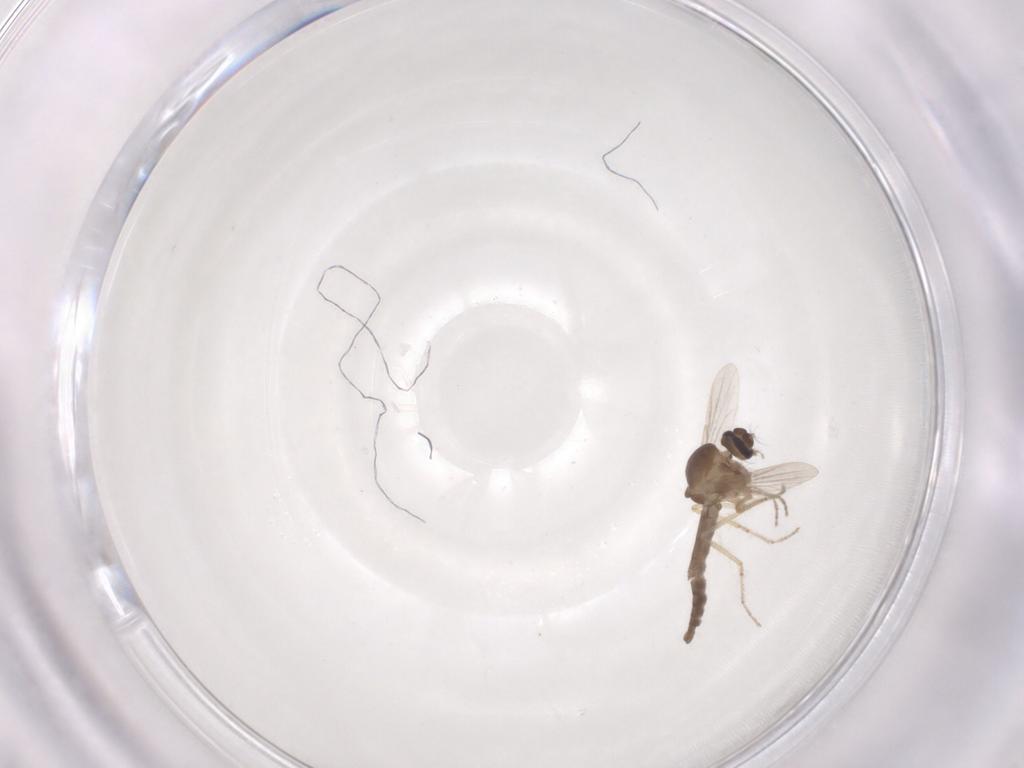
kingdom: Animalia
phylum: Arthropoda
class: Insecta
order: Diptera
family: Ceratopogonidae
